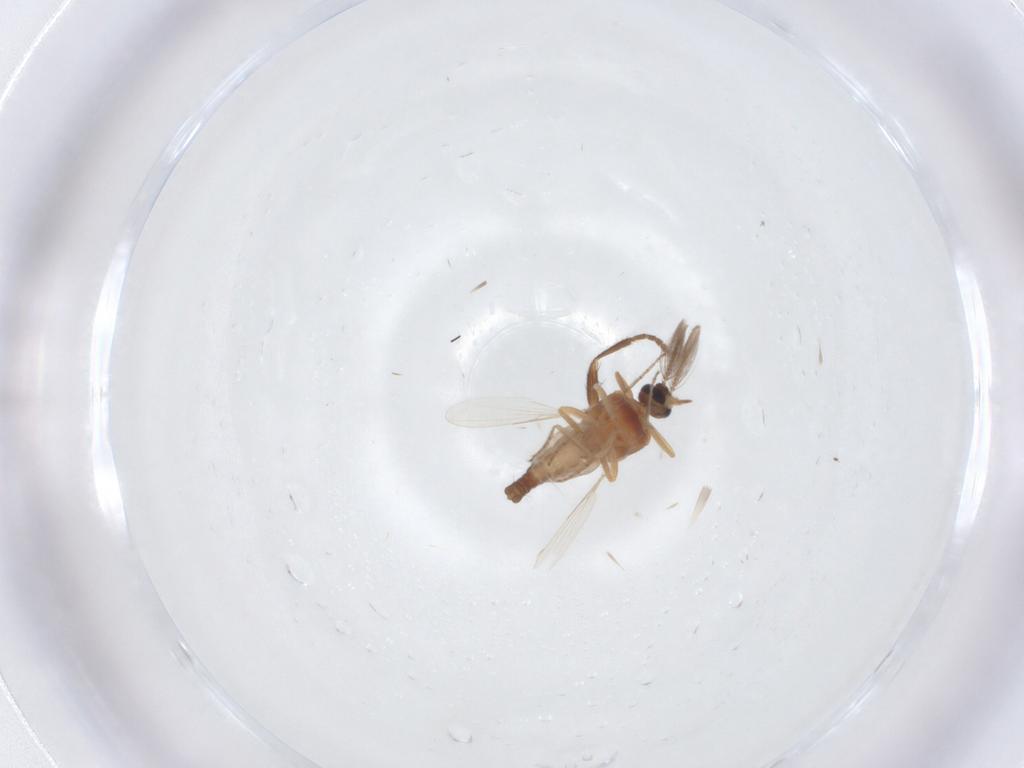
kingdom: Animalia
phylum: Arthropoda
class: Insecta
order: Diptera
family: Ceratopogonidae
